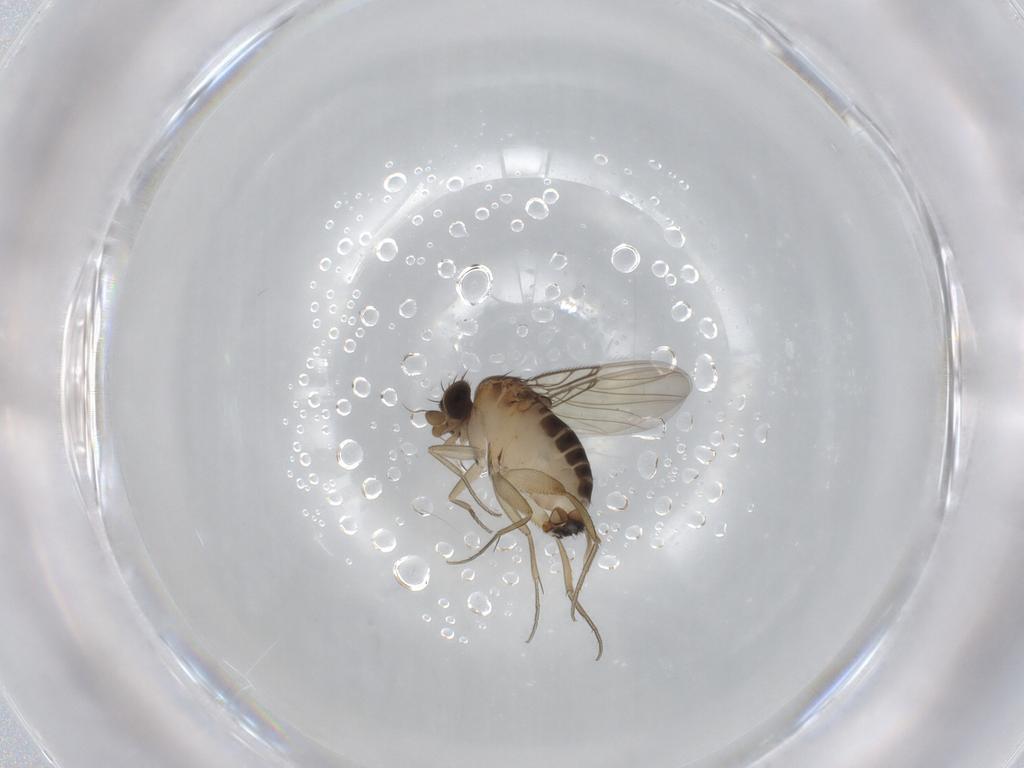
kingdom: Animalia
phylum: Arthropoda
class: Insecta
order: Diptera
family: Phoridae
